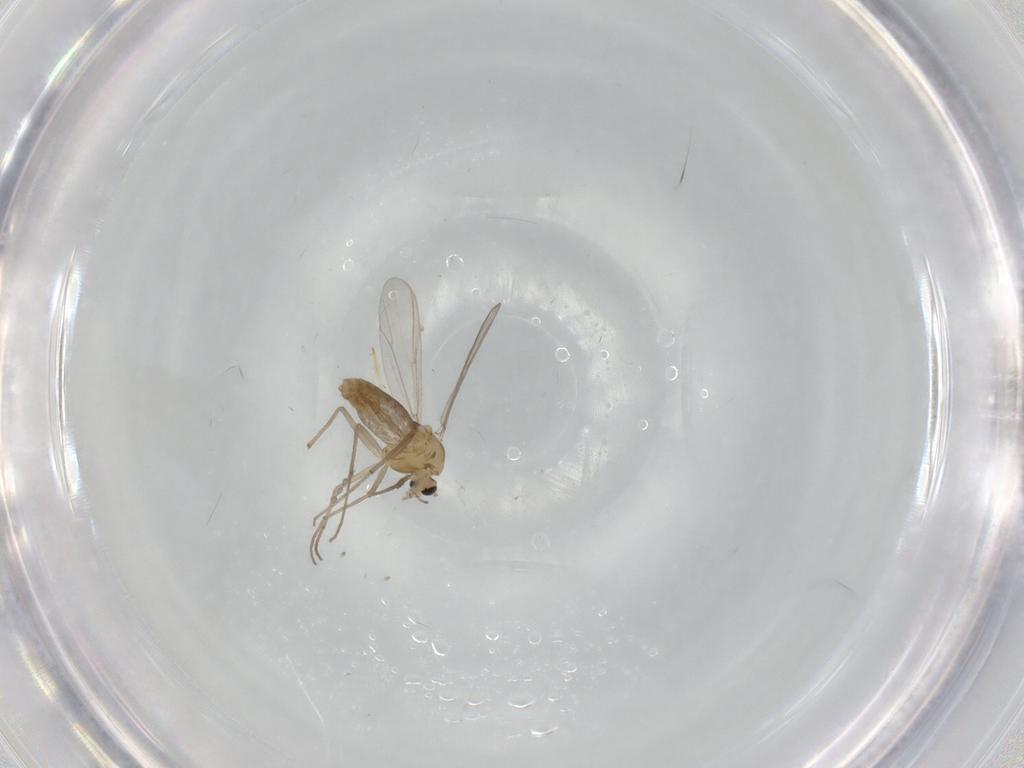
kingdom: Animalia
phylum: Arthropoda
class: Insecta
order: Diptera
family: Chironomidae
